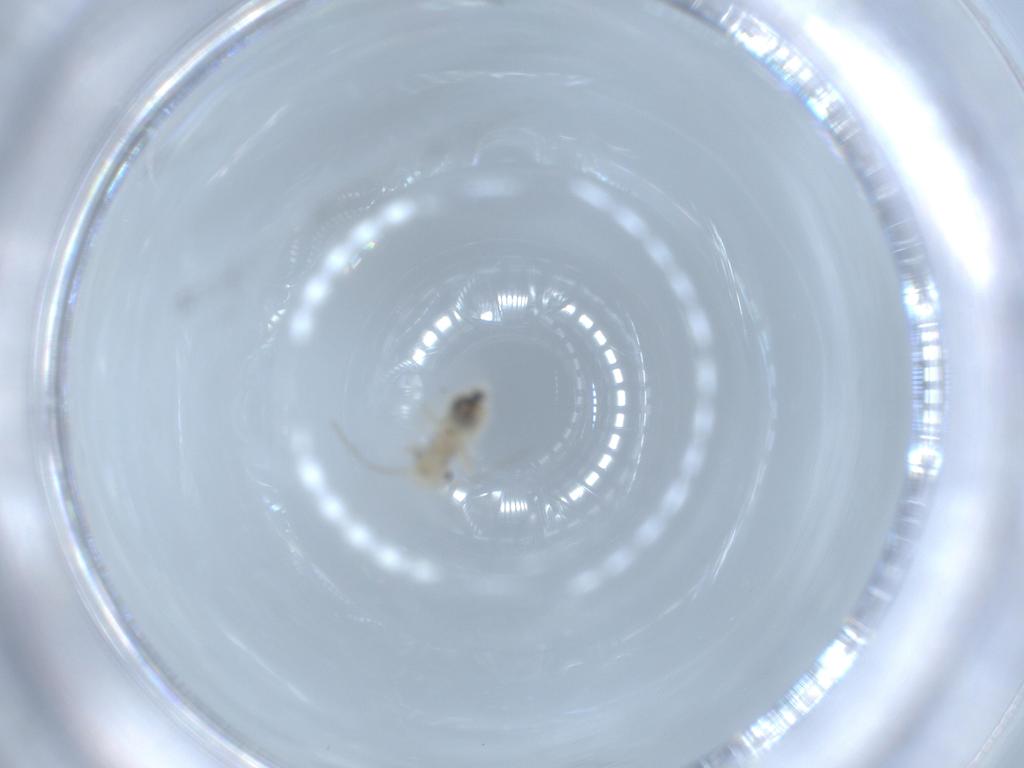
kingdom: Animalia
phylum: Arthropoda
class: Insecta
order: Psocodea
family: Amphipsocidae
